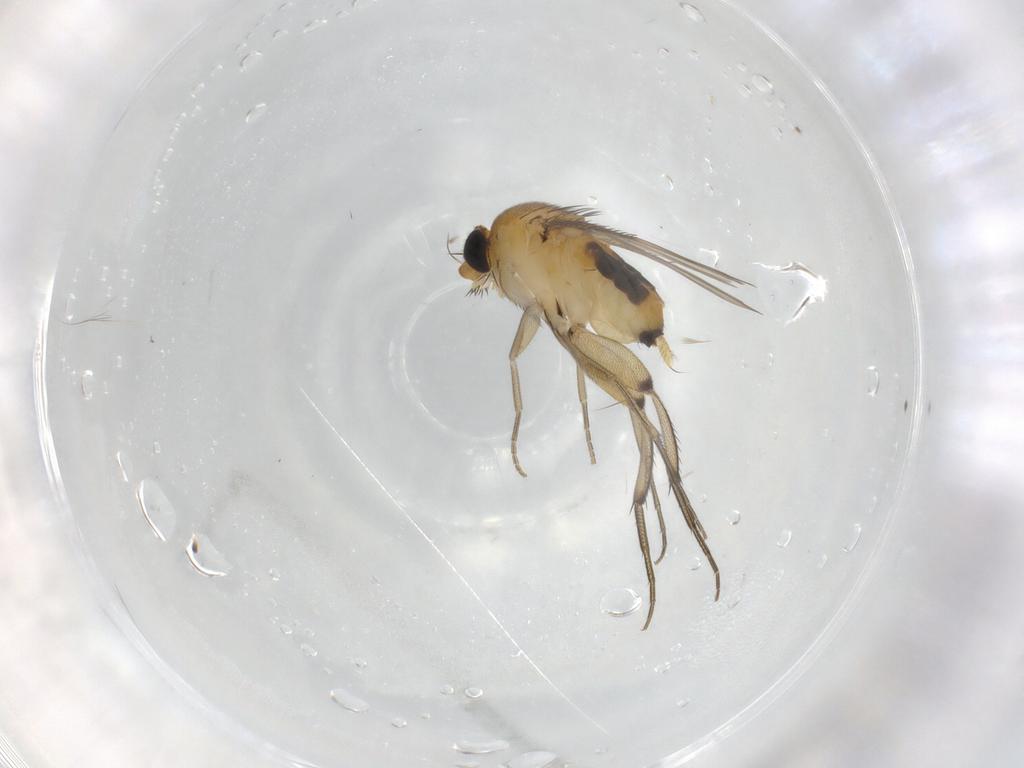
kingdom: Animalia
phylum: Arthropoda
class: Insecta
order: Diptera
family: Phoridae
